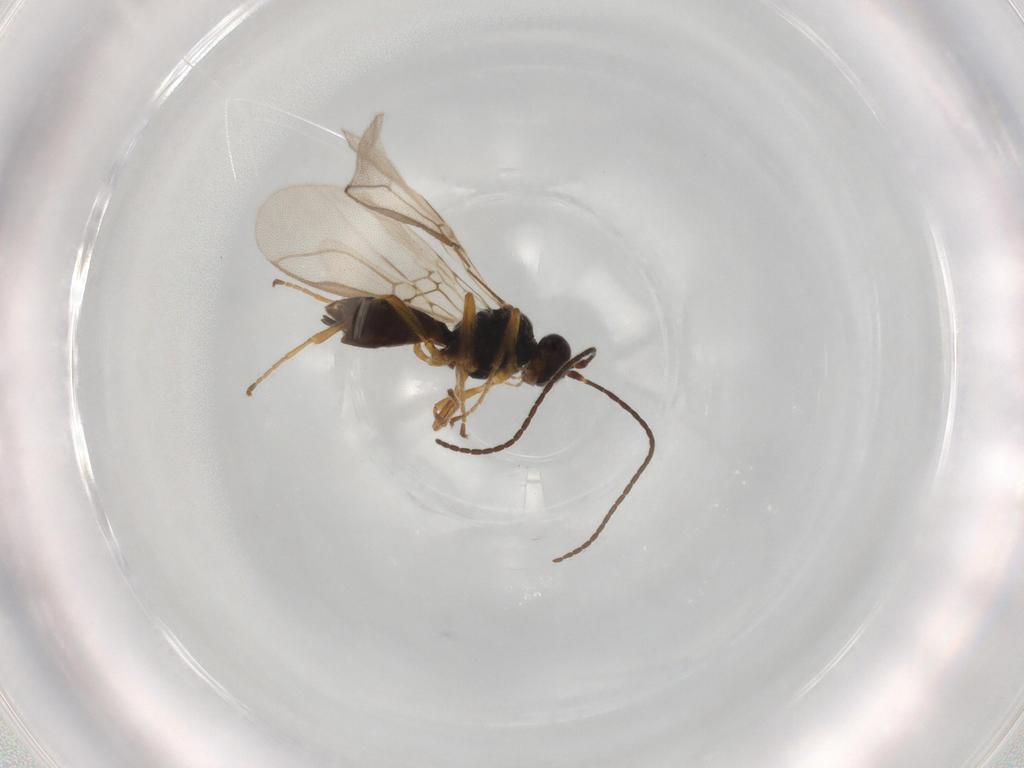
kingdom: Animalia
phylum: Arthropoda
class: Insecta
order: Hymenoptera
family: Braconidae
